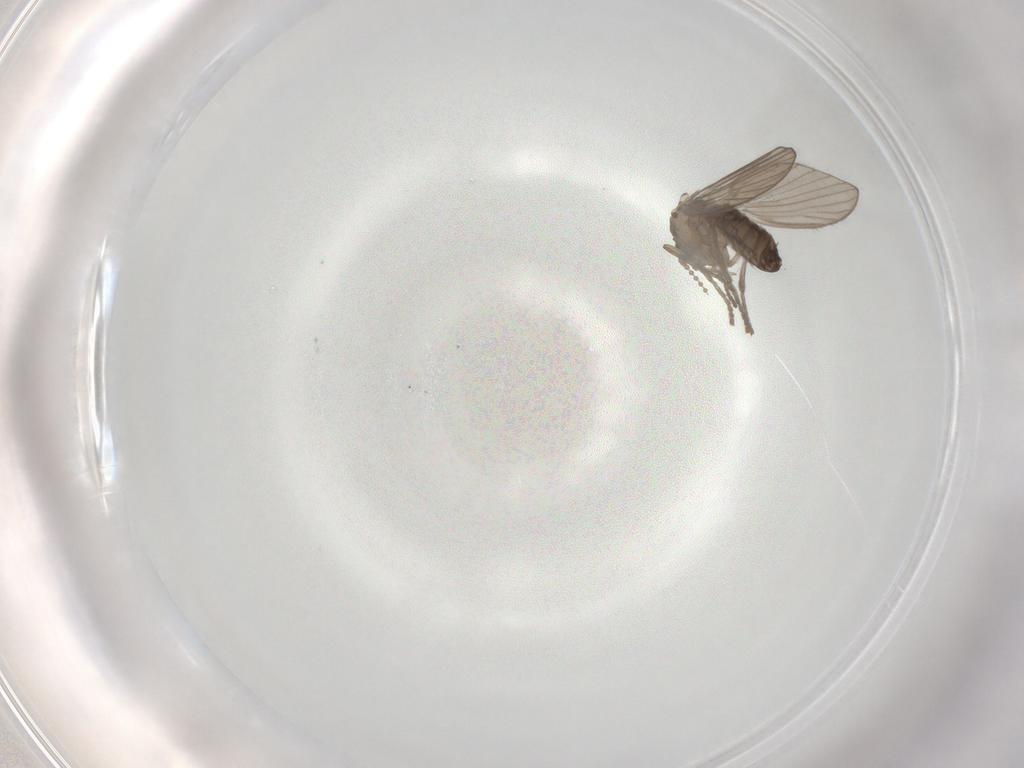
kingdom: Animalia
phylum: Arthropoda
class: Insecta
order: Diptera
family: Psychodidae
